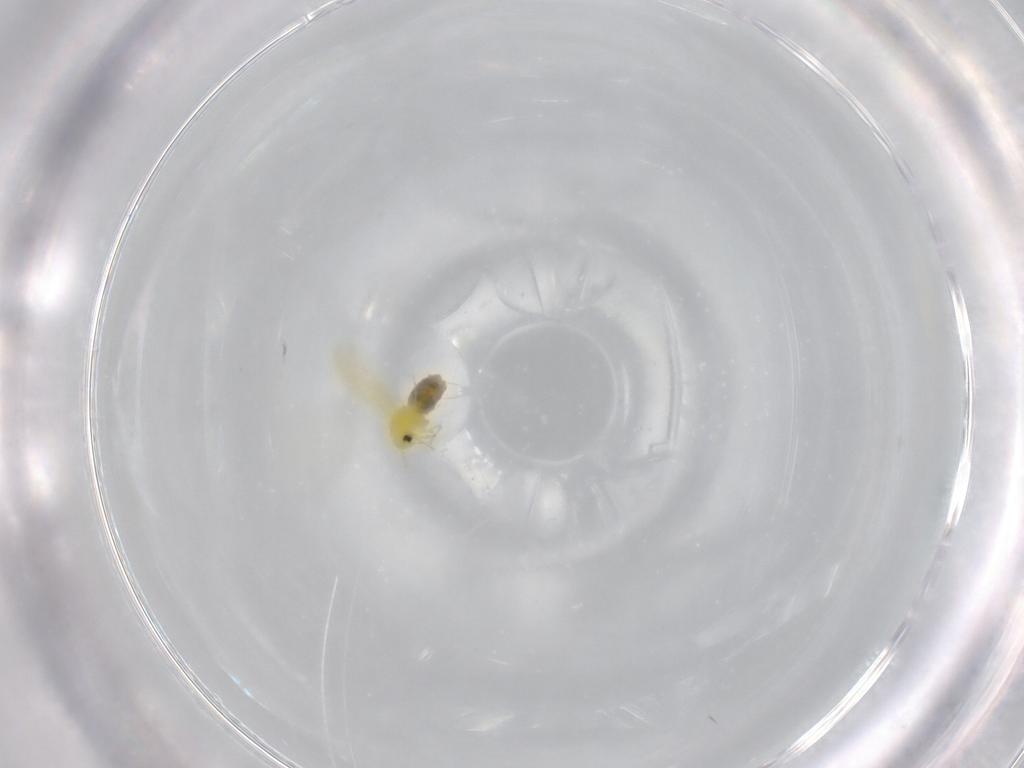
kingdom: Animalia
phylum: Arthropoda
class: Insecta
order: Hemiptera
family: Cicadellidae
